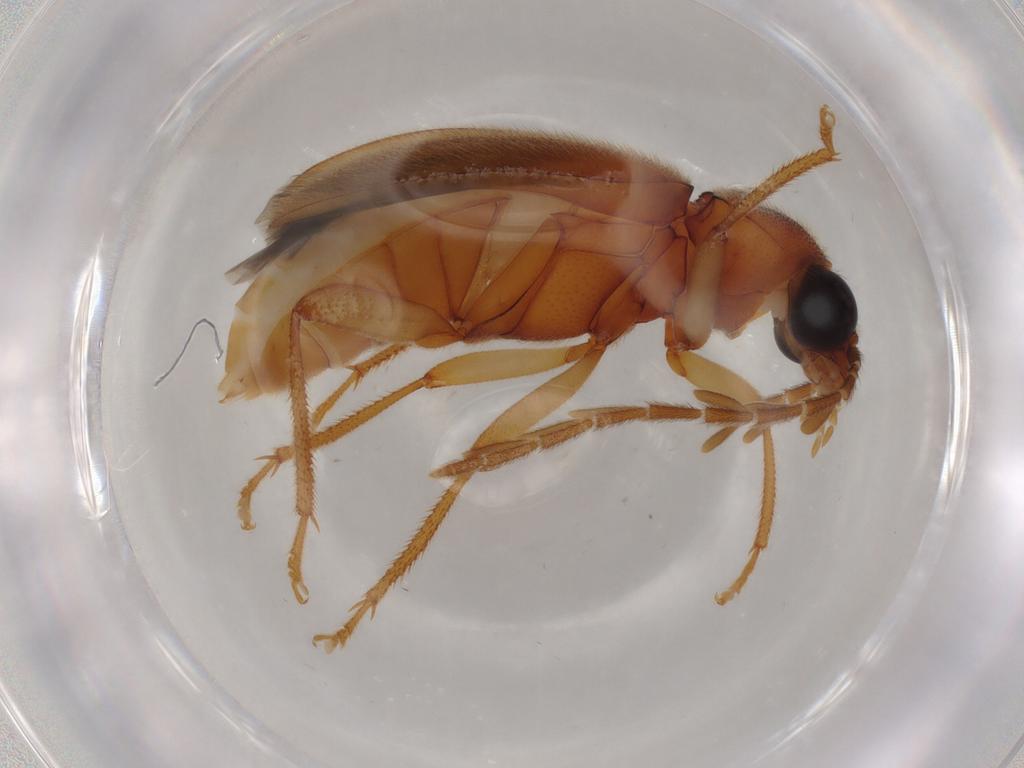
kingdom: Animalia
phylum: Arthropoda
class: Insecta
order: Coleoptera
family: Ptilodactylidae
